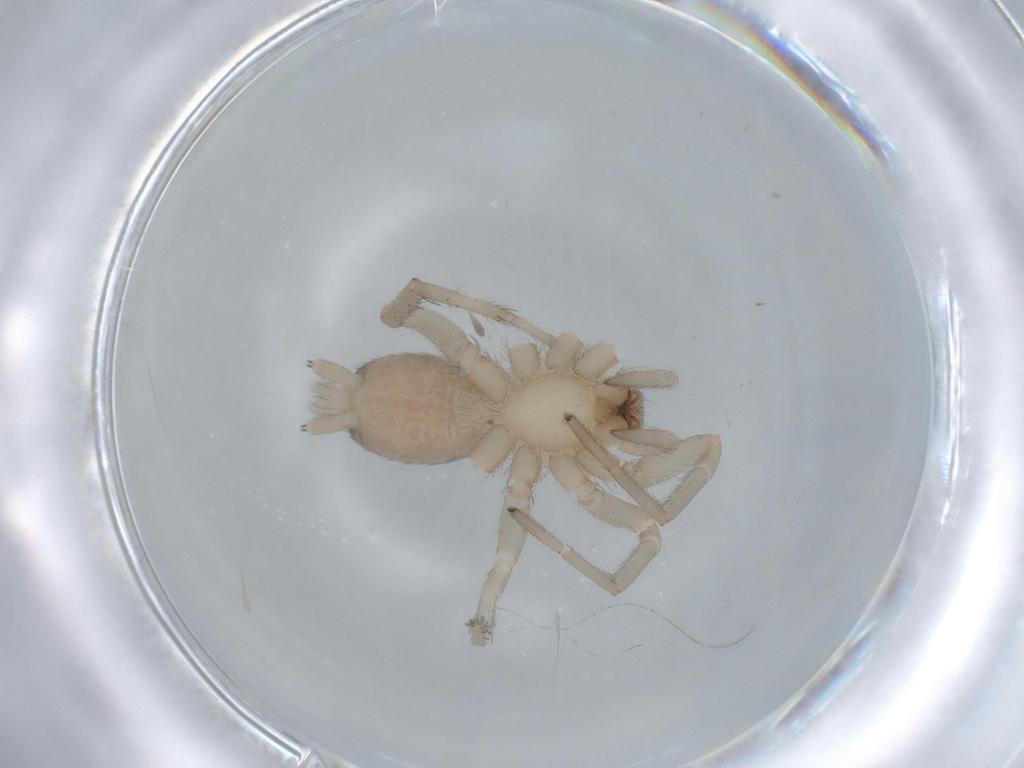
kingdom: Animalia
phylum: Arthropoda
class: Arachnida
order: Araneae
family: Gnaphosidae
